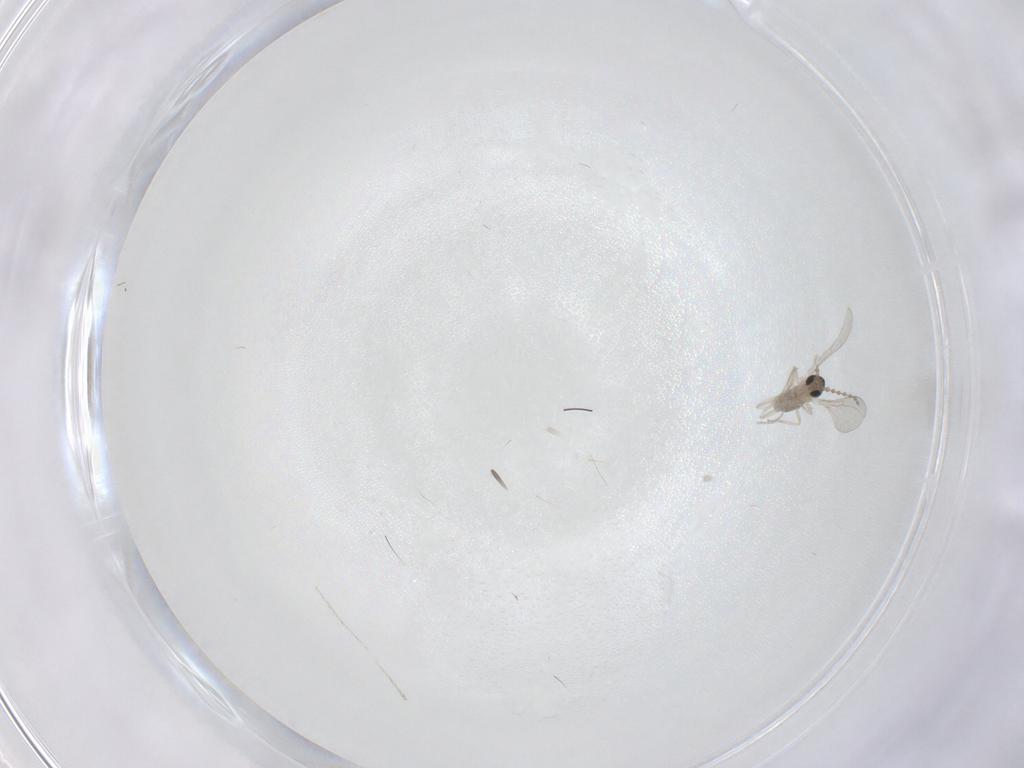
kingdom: Animalia
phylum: Arthropoda
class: Insecta
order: Diptera
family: Cecidomyiidae
